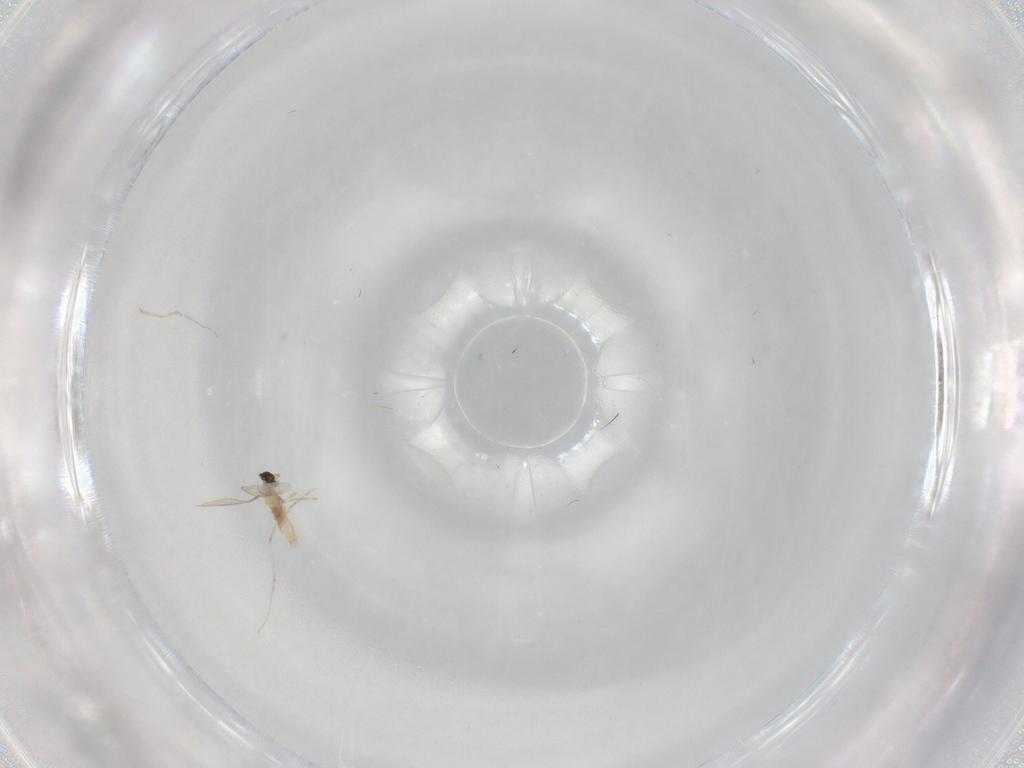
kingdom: Animalia
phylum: Arthropoda
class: Insecta
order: Diptera
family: Cecidomyiidae
